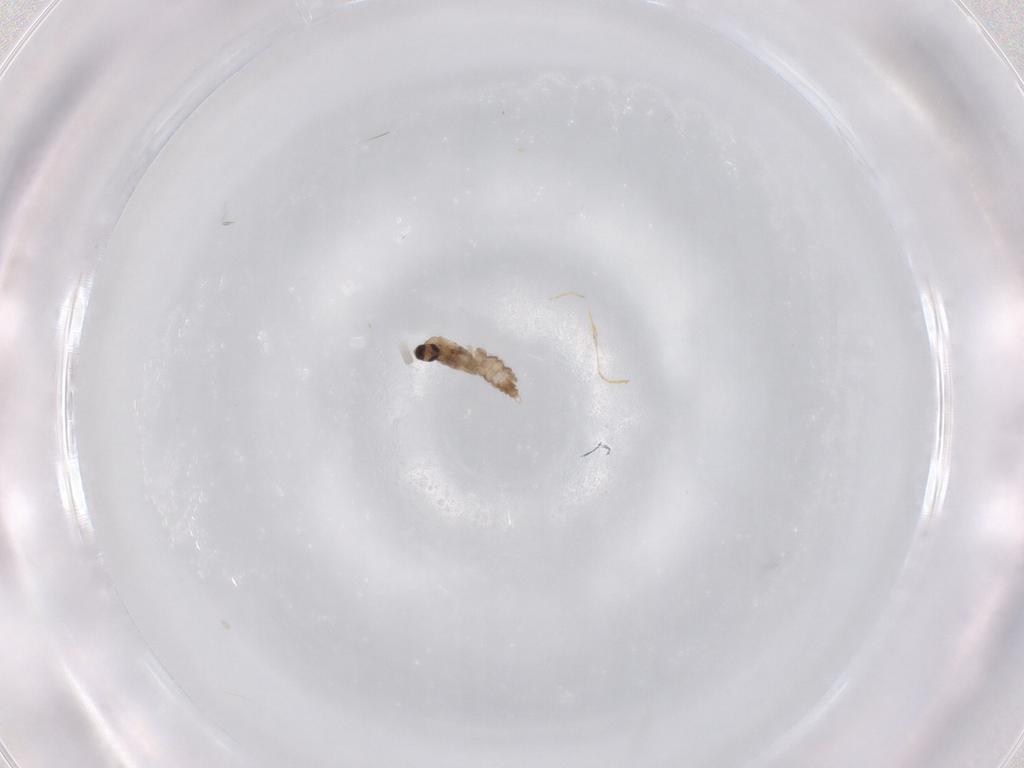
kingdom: Animalia
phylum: Arthropoda
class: Insecta
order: Diptera
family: Cecidomyiidae
